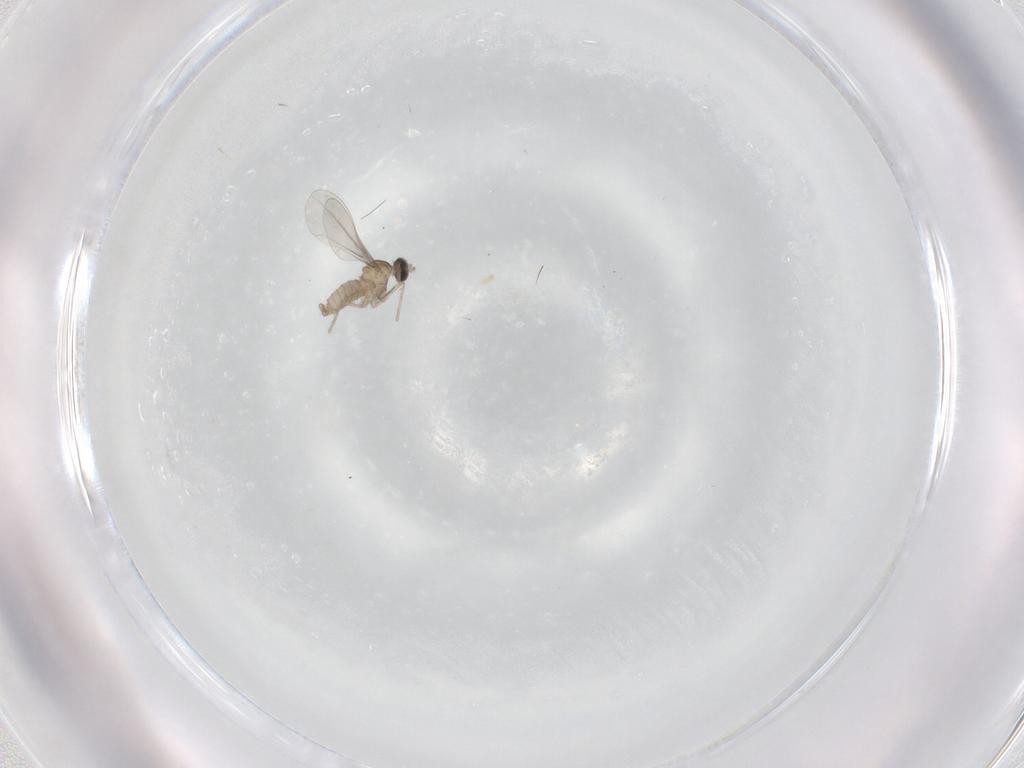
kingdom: Animalia
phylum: Arthropoda
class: Insecta
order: Diptera
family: Cecidomyiidae
